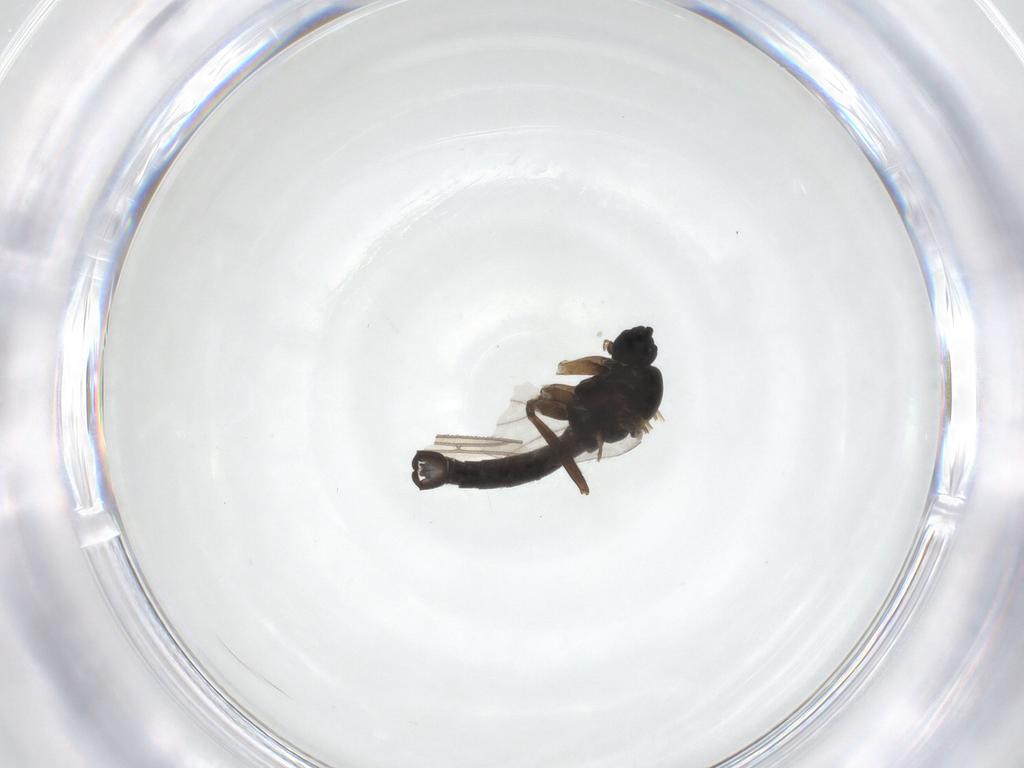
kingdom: Animalia
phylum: Arthropoda
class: Insecta
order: Diptera
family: Sciaridae
